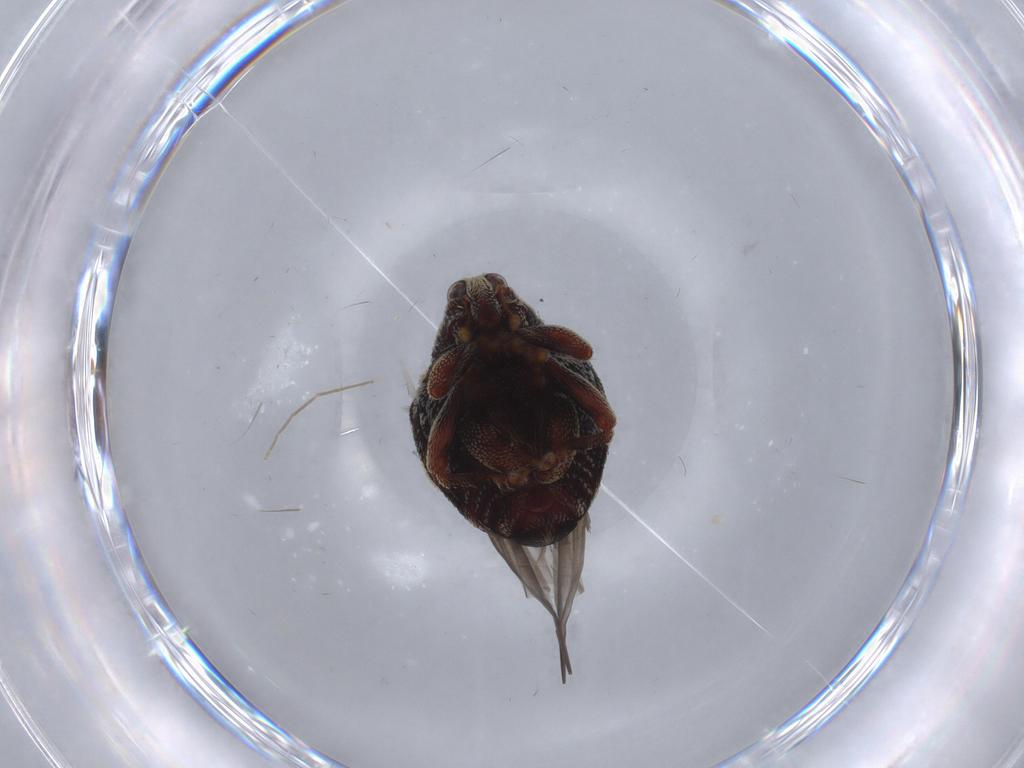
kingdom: Animalia
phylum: Arthropoda
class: Insecta
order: Coleoptera
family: Curculionidae
